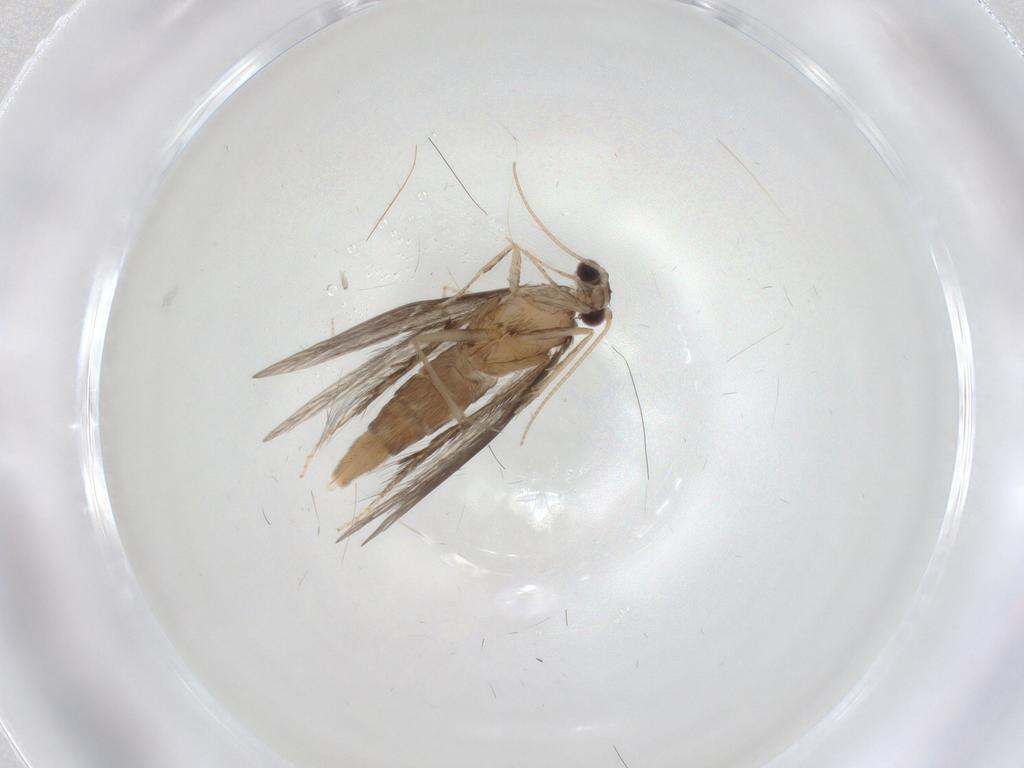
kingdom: Animalia
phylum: Arthropoda
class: Insecta
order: Trichoptera
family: Hydroptilidae
